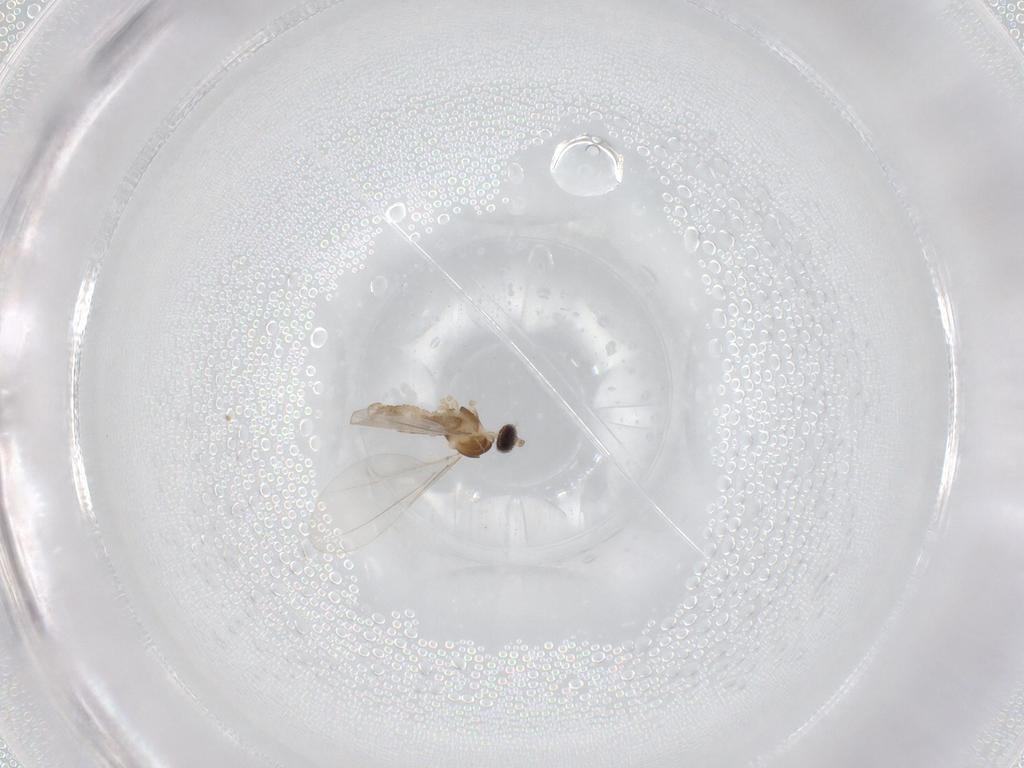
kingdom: Animalia
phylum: Arthropoda
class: Insecta
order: Diptera
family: Cecidomyiidae
